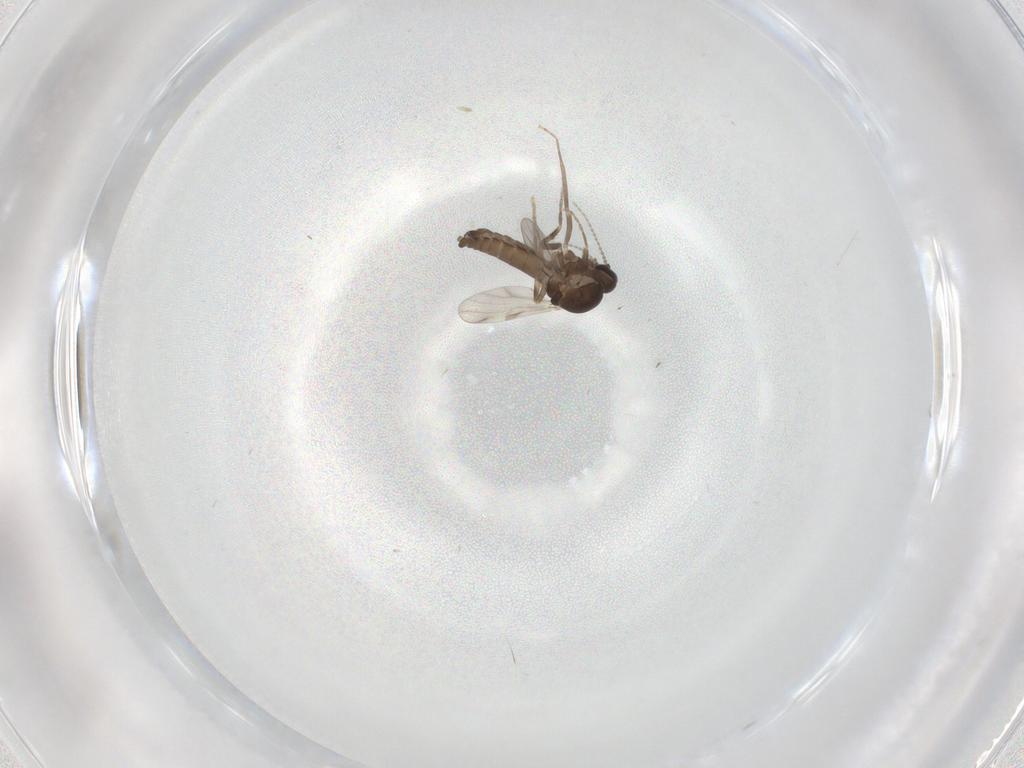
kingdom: Animalia
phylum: Arthropoda
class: Insecta
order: Diptera
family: Ceratopogonidae
